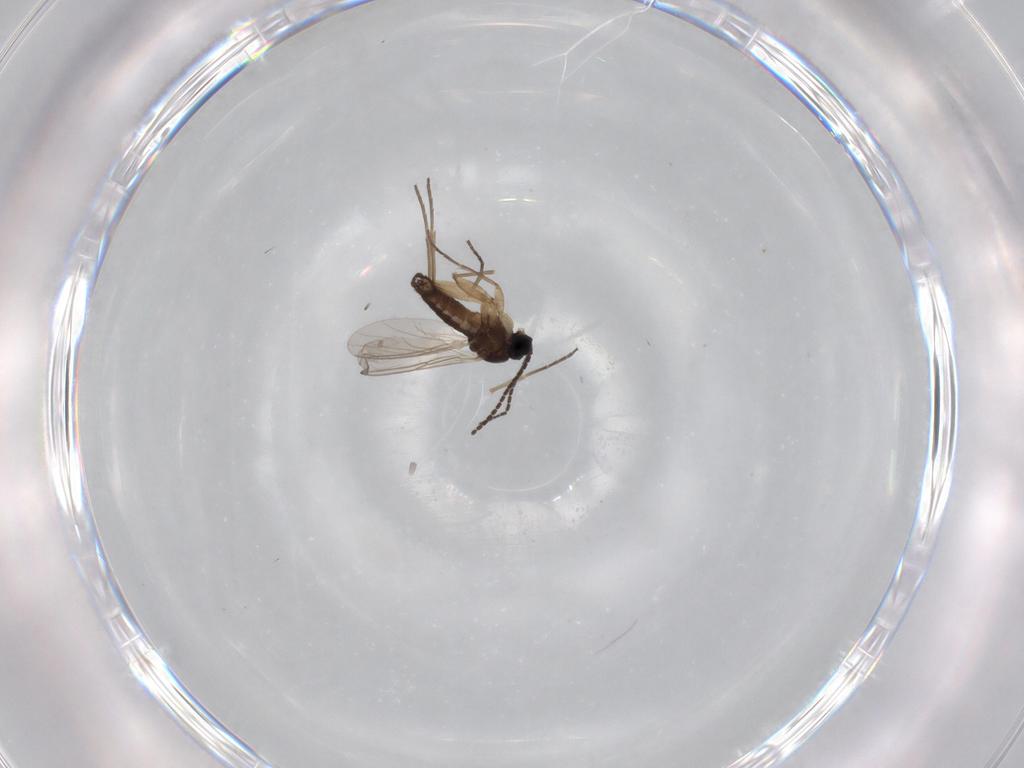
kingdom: Animalia
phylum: Arthropoda
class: Insecta
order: Diptera
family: Sciaridae
